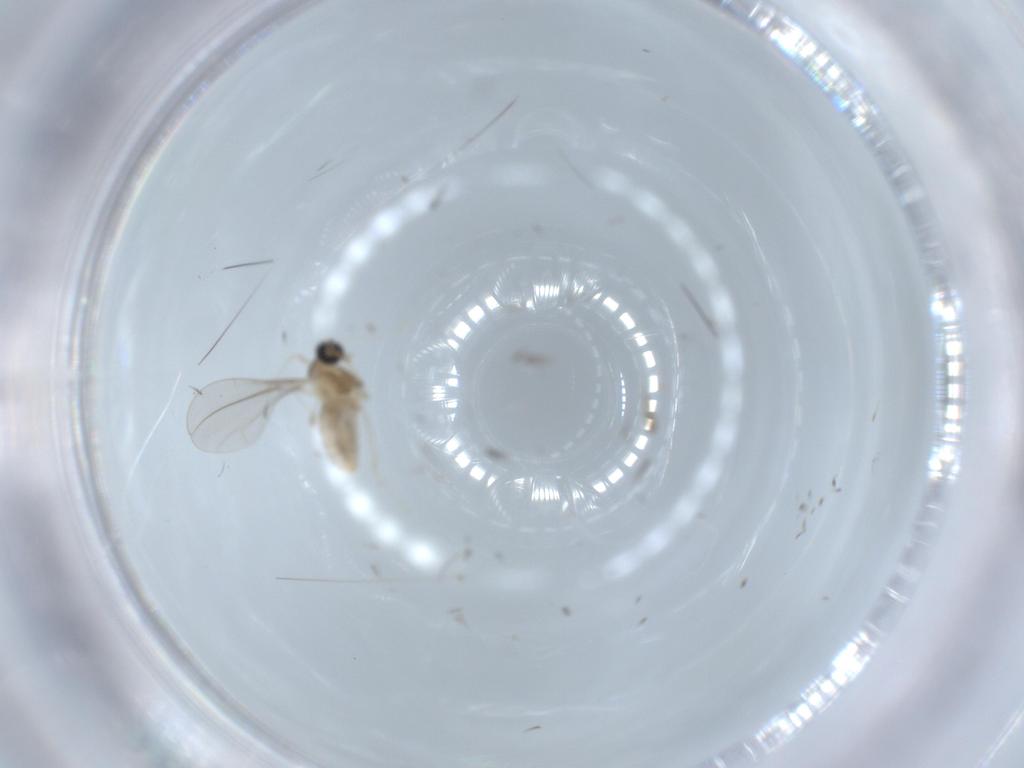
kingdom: Animalia
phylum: Arthropoda
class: Insecta
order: Diptera
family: Cecidomyiidae
